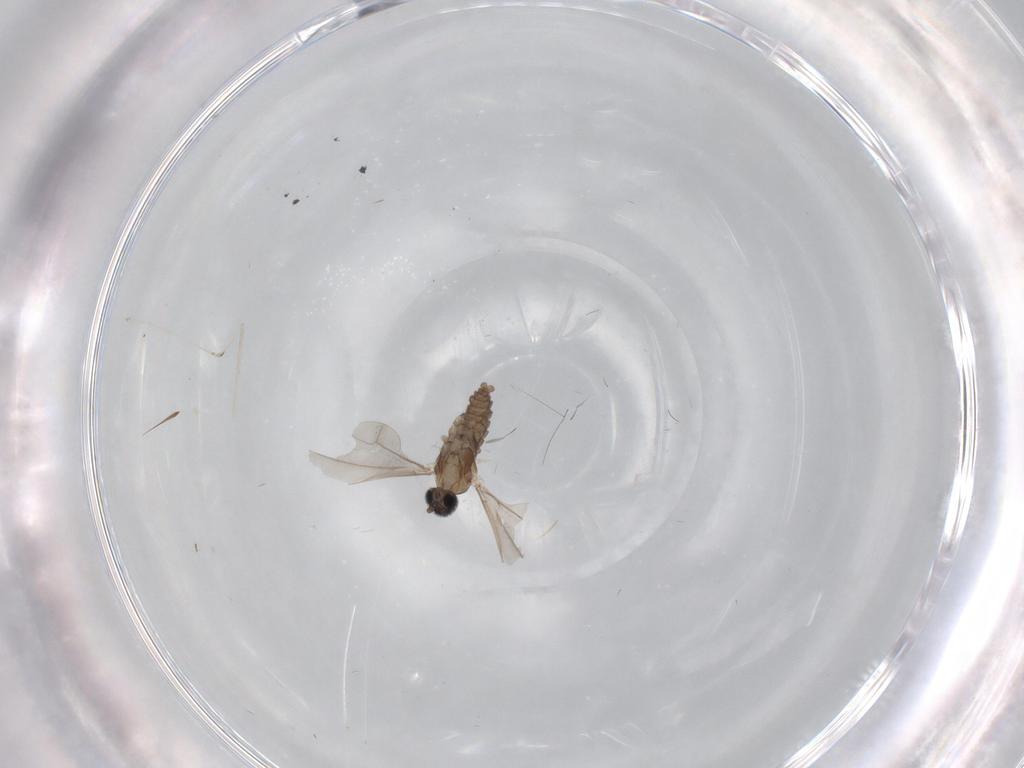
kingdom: Animalia
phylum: Arthropoda
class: Insecta
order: Diptera
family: Cecidomyiidae
